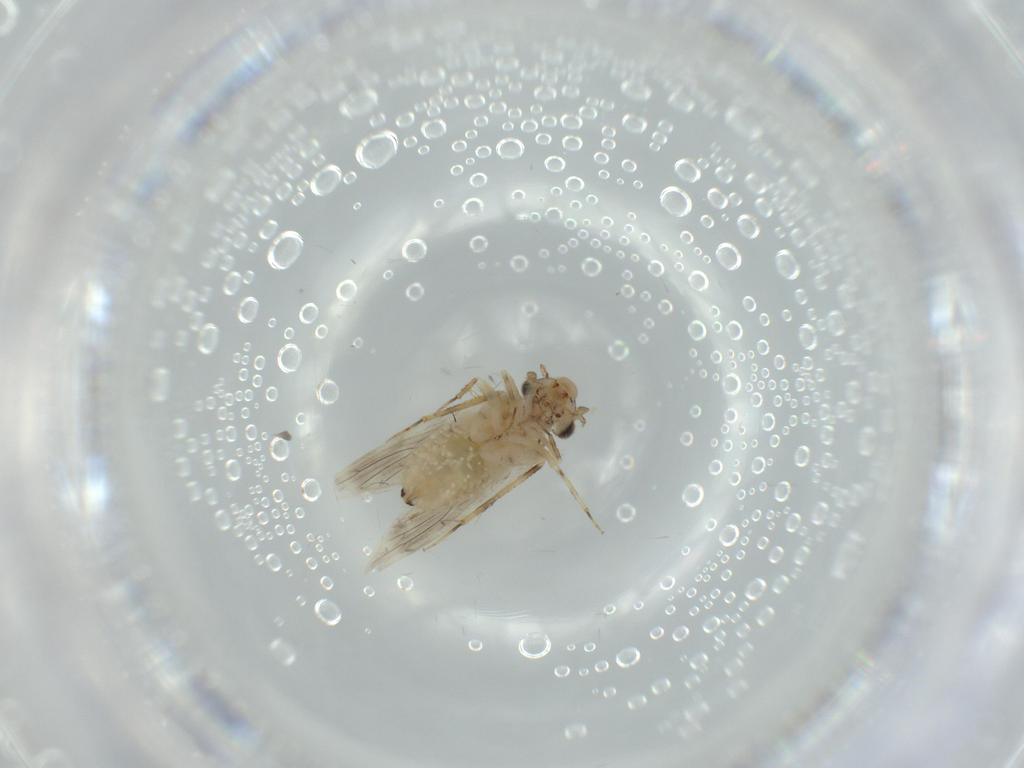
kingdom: Animalia
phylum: Arthropoda
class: Insecta
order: Psocodea
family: Lepidopsocidae
